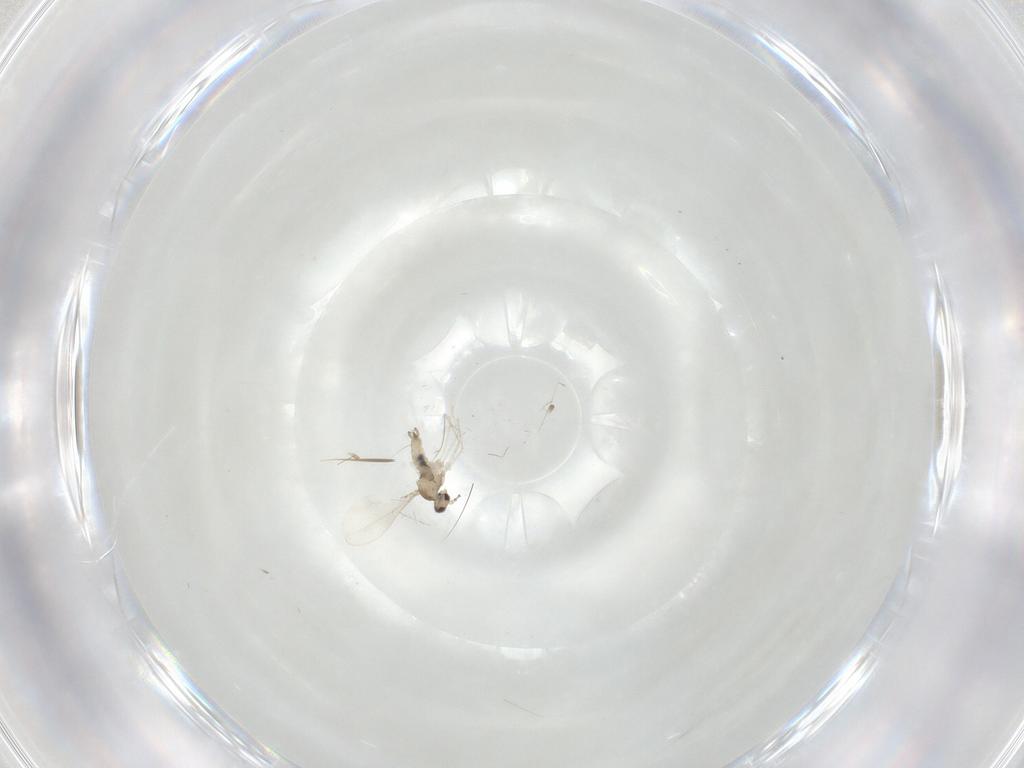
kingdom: Animalia
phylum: Arthropoda
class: Insecta
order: Diptera
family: Cecidomyiidae
